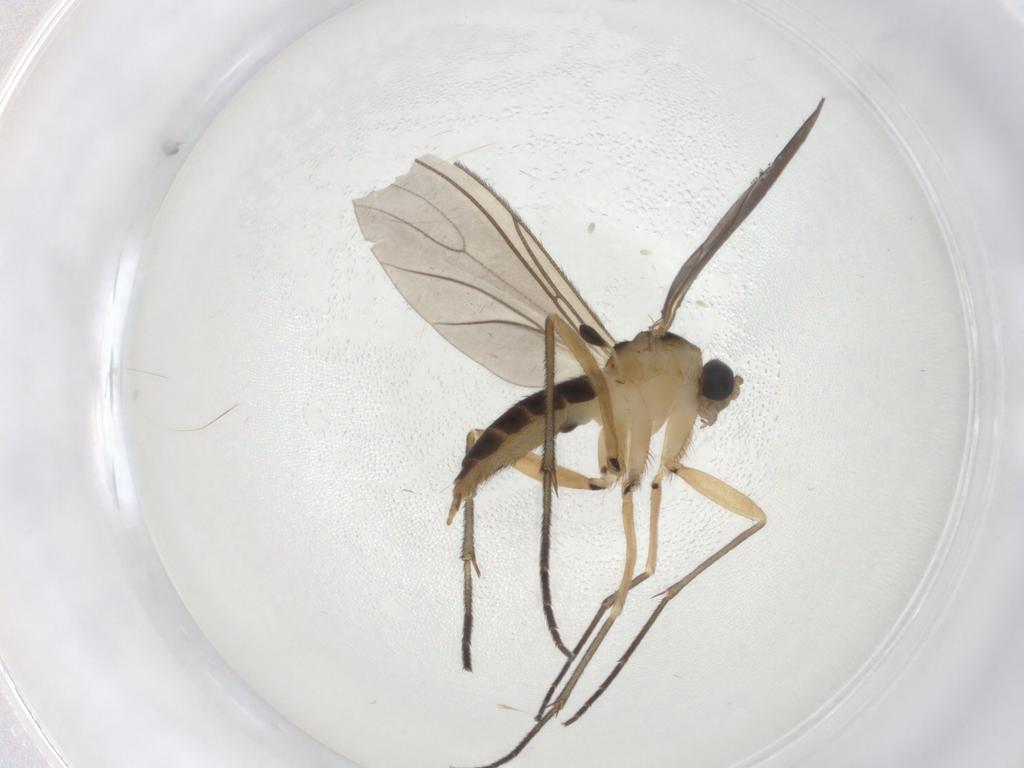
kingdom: Animalia
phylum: Arthropoda
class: Insecta
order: Diptera
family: Sciaridae
